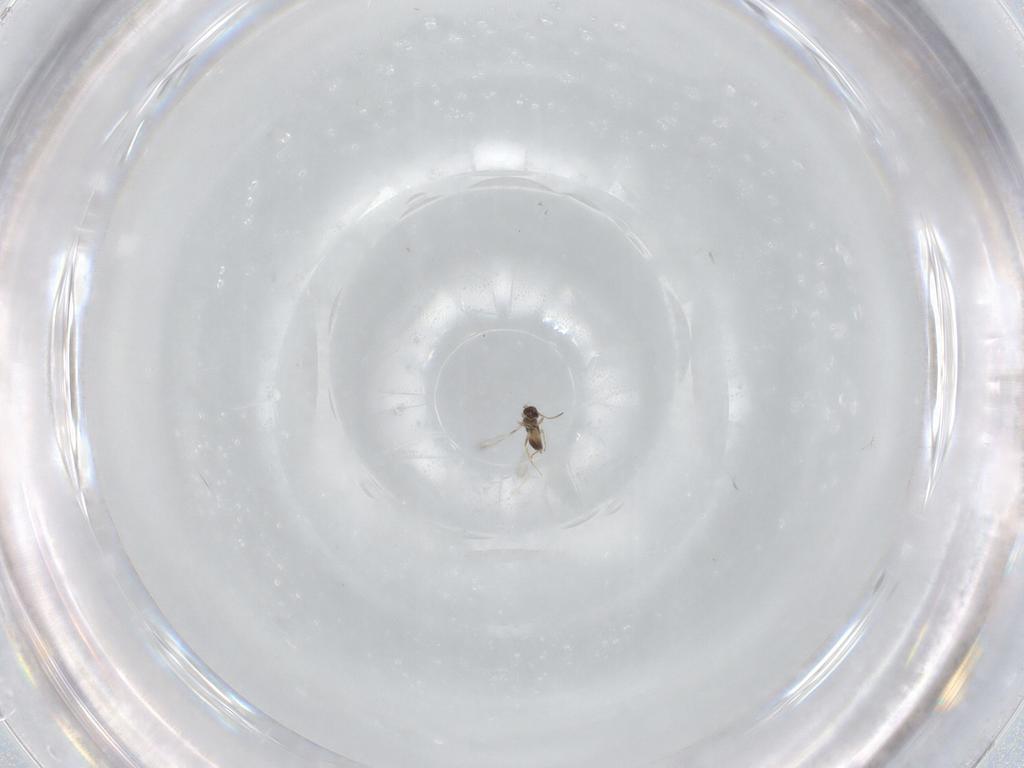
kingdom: Animalia
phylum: Arthropoda
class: Insecta
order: Hymenoptera
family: Mymaridae
